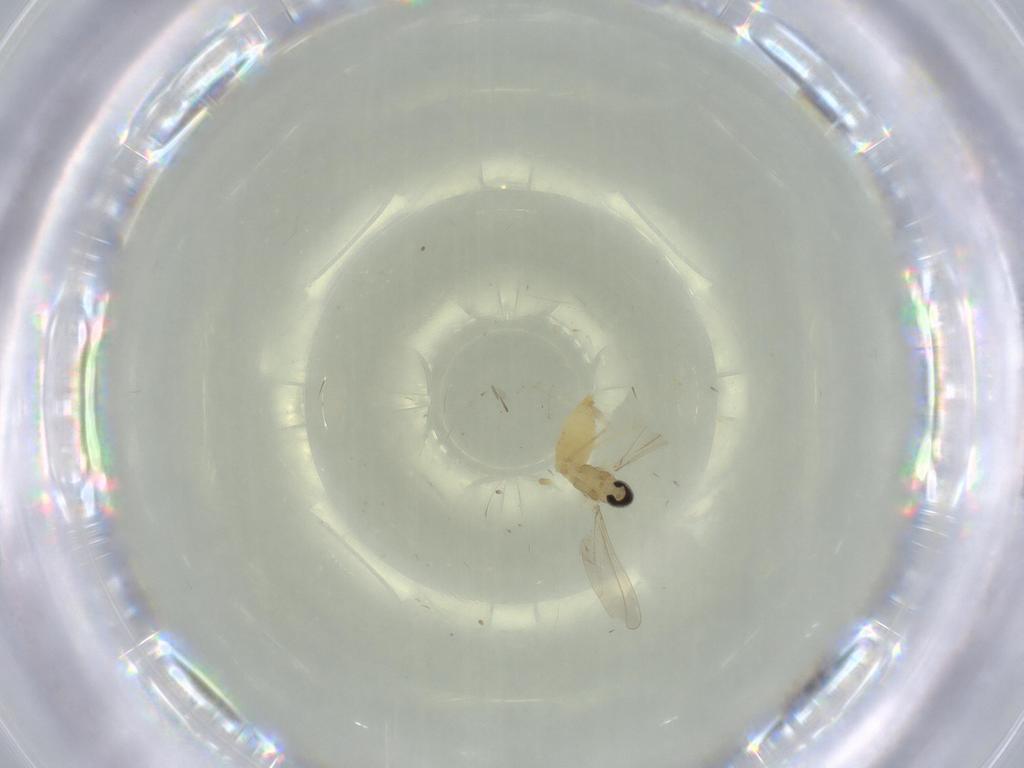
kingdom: Animalia
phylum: Arthropoda
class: Insecta
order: Diptera
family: Cecidomyiidae
